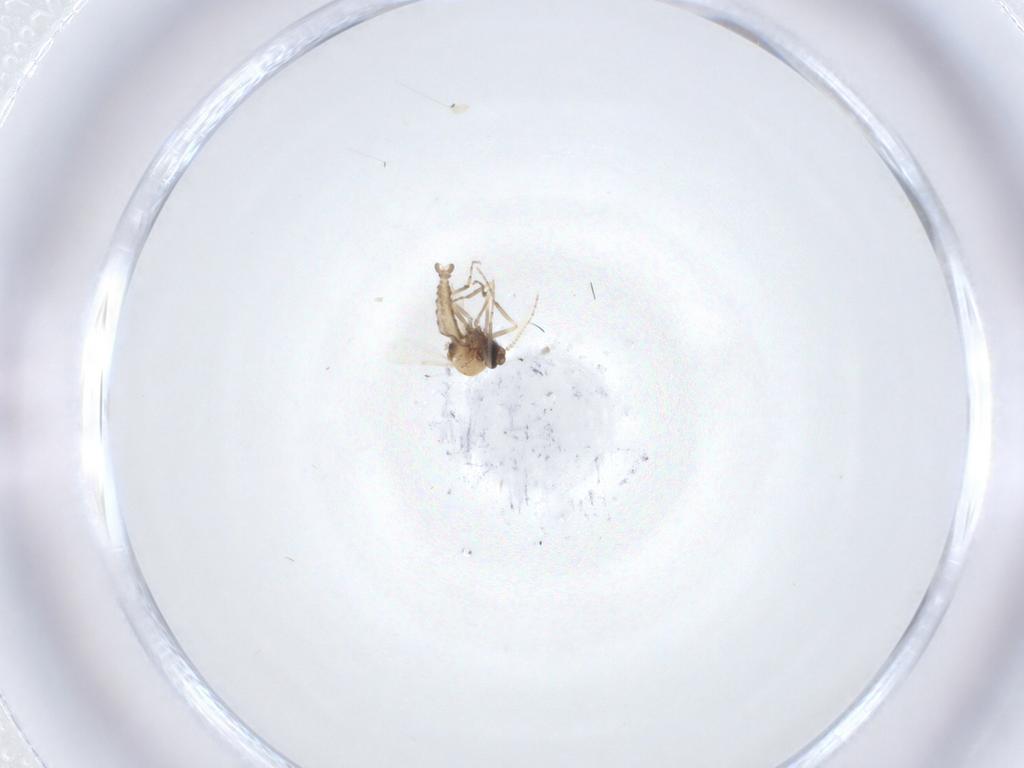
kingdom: Animalia
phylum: Arthropoda
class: Insecta
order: Diptera
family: Ceratopogonidae
